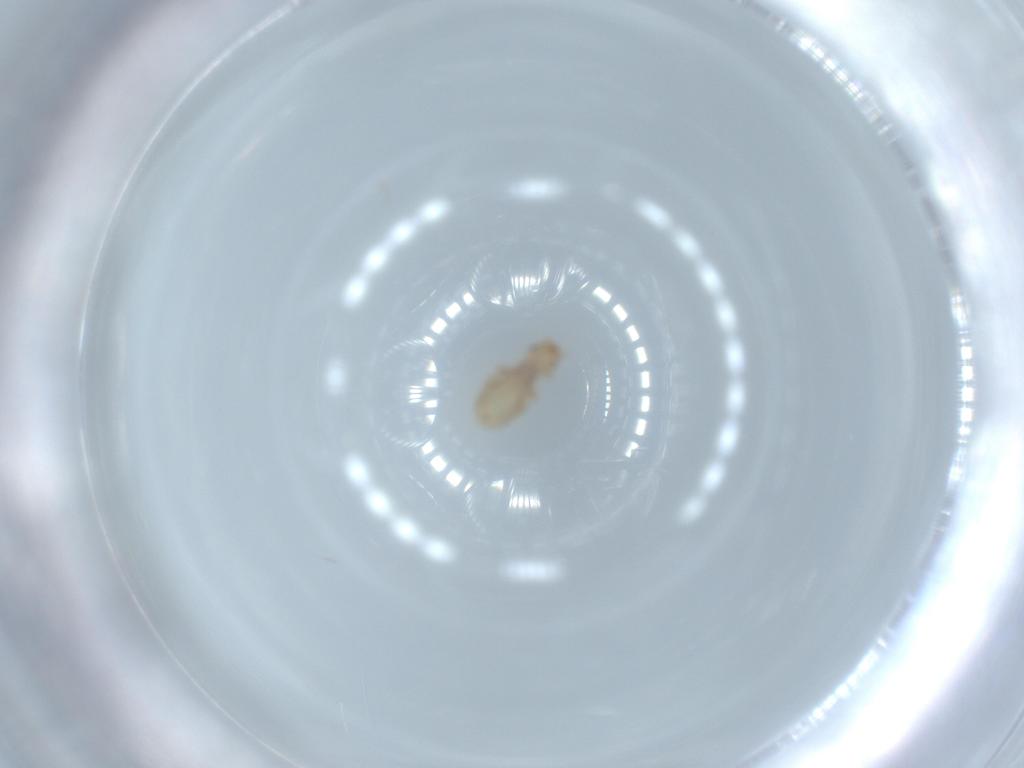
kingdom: Animalia
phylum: Arthropoda
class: Insecta
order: Psocodea
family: Liposcelididae
